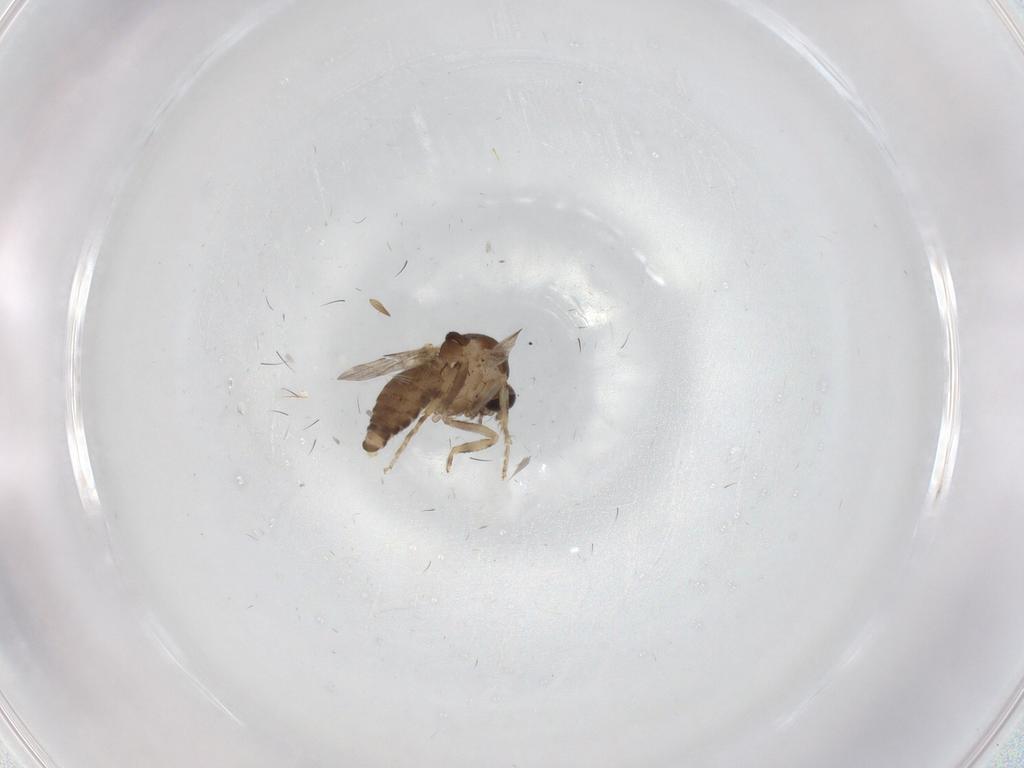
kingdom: Animalia
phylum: Arthropoda
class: Insecta
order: Diptera
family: Ceratopogonidae
